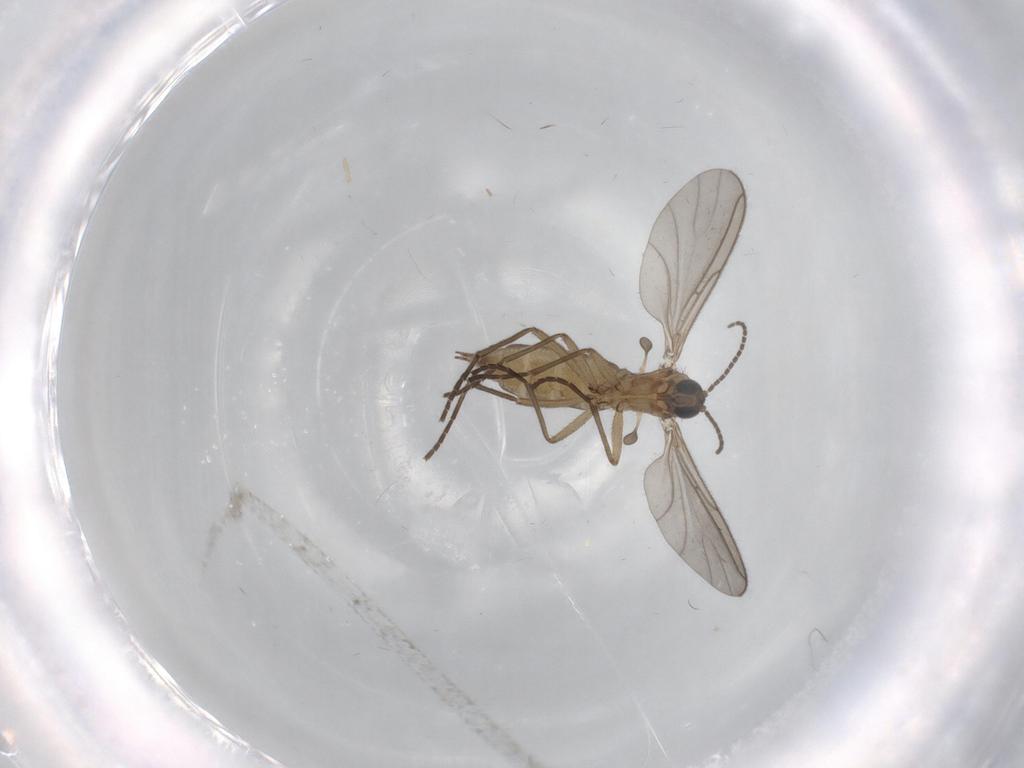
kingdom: Animalia
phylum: Arthropoda
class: Insecta
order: Diptera
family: Sciaridae
